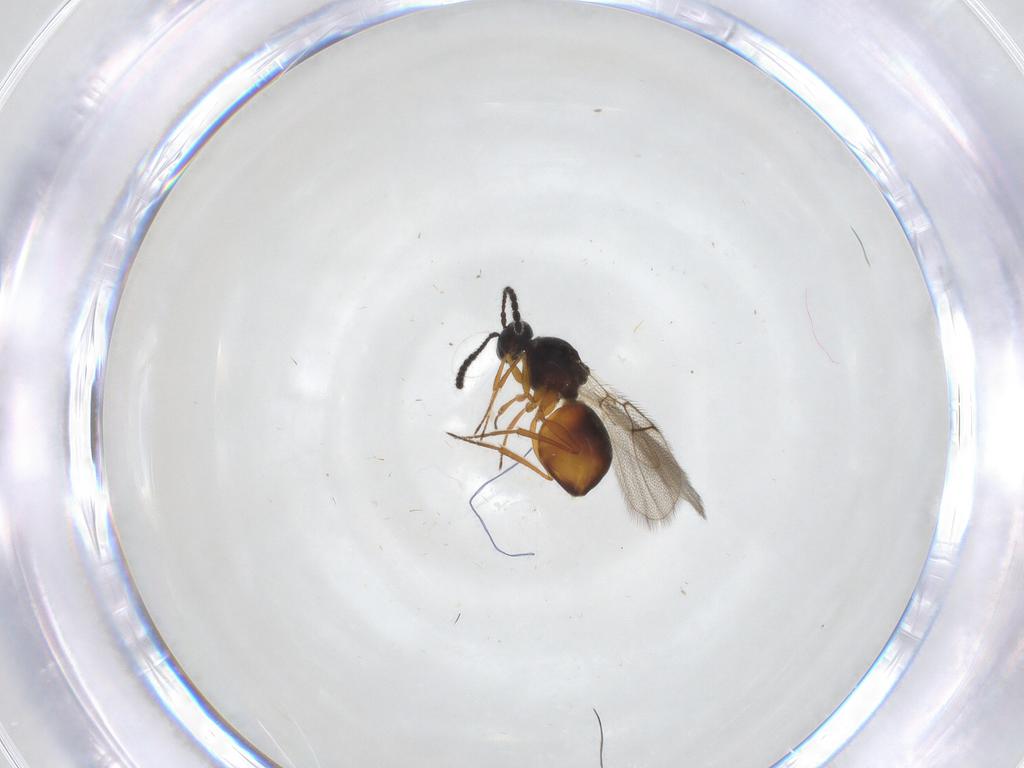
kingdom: Animalia
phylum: Arthropoda
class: Insecta
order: Hymenoptera
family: Figitidae
